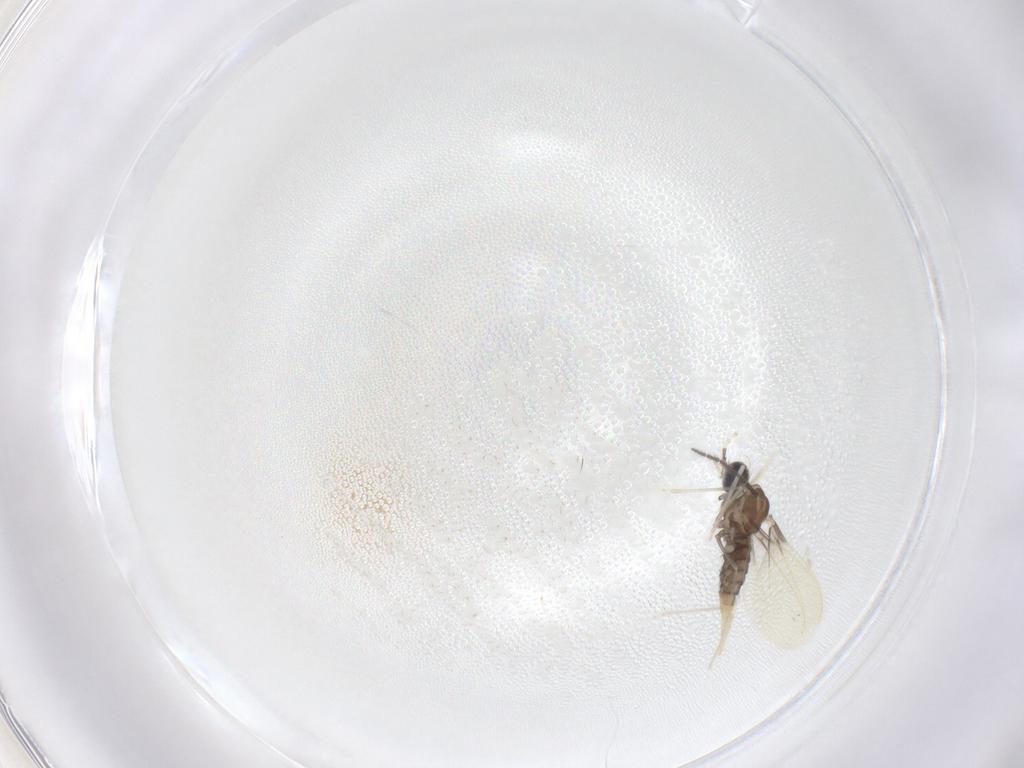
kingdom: Animalia
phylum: Arthropoda
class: Insecta
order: Diptera
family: Cecidomyiidae
